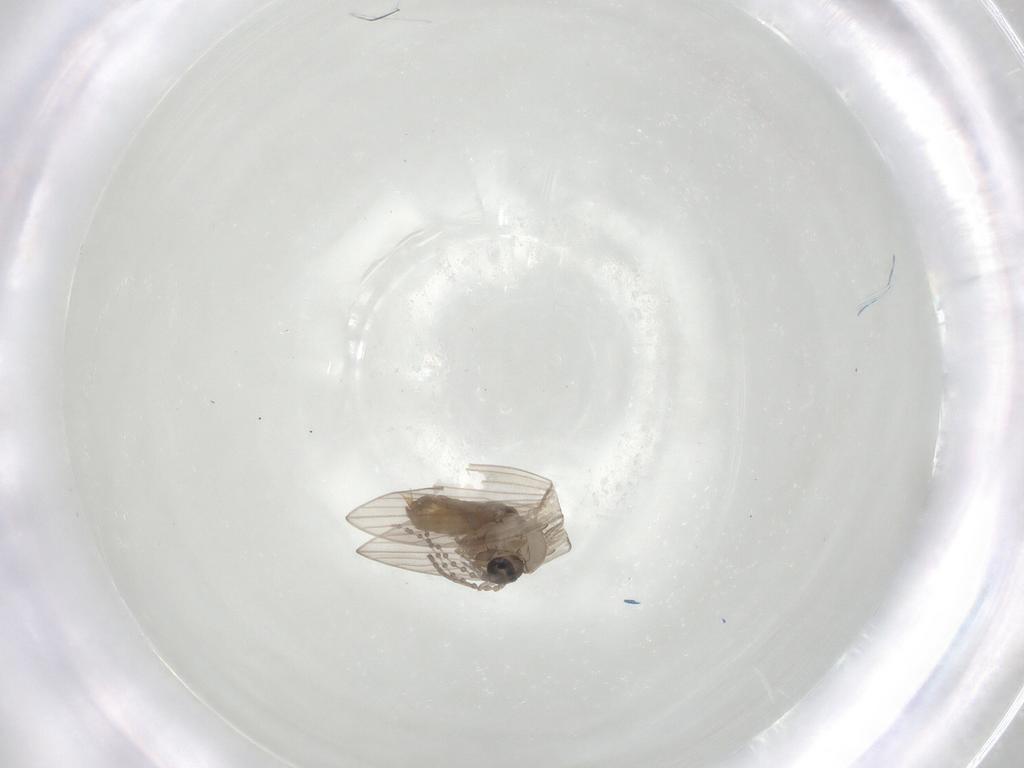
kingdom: Animalia
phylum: Arthropoda
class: Insecta
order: Diptera
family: Psychodidae
